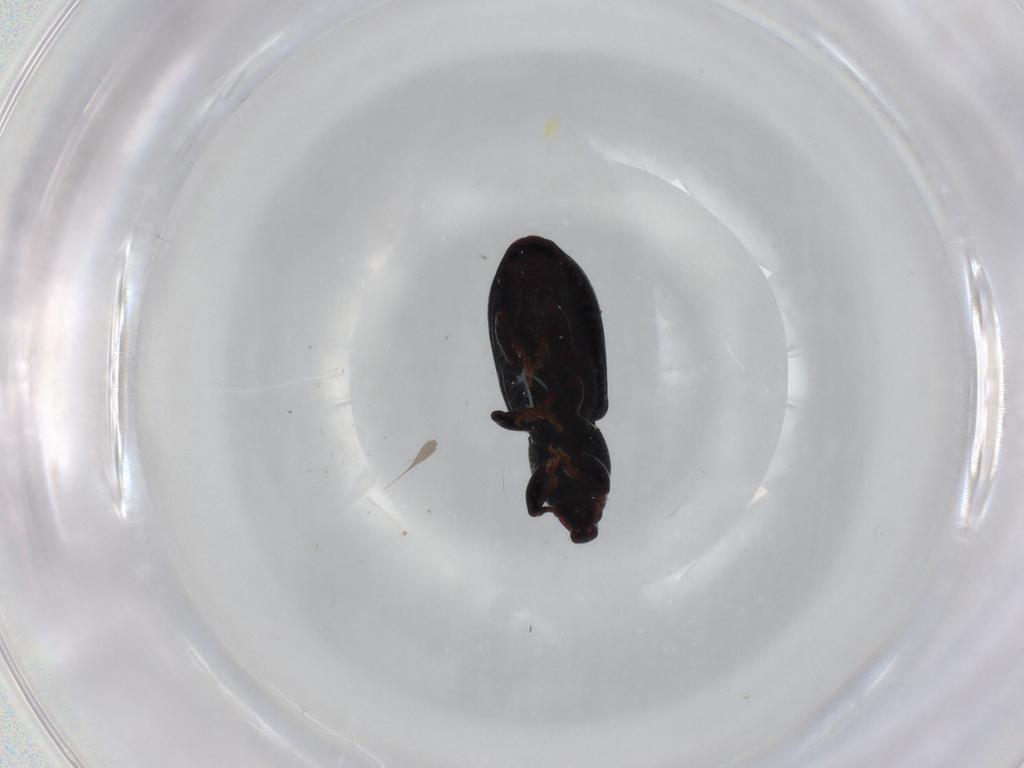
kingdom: Animalia
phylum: Arthropoda
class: Insecta
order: Coleoptera
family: Curculionidae
